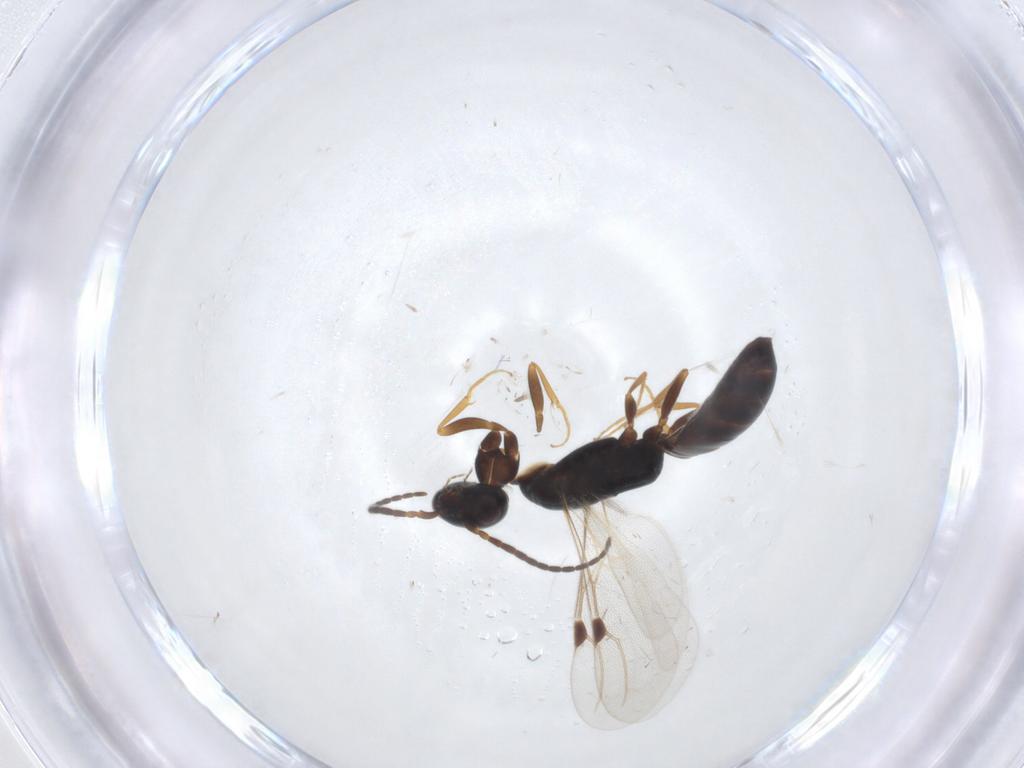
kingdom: Animalia
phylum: Arthropoda
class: Insecta
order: Hymenoptera
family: Bethylidae
